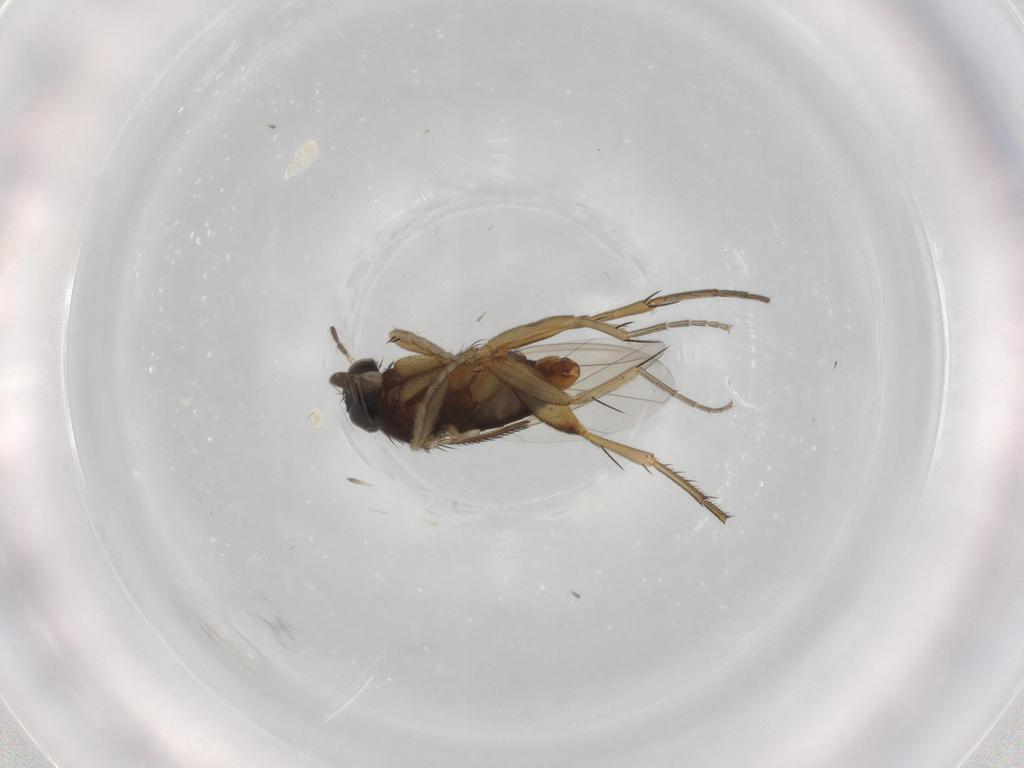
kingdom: Animalia
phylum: Arthropoda
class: Insecta
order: Diptera
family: Phoridae
